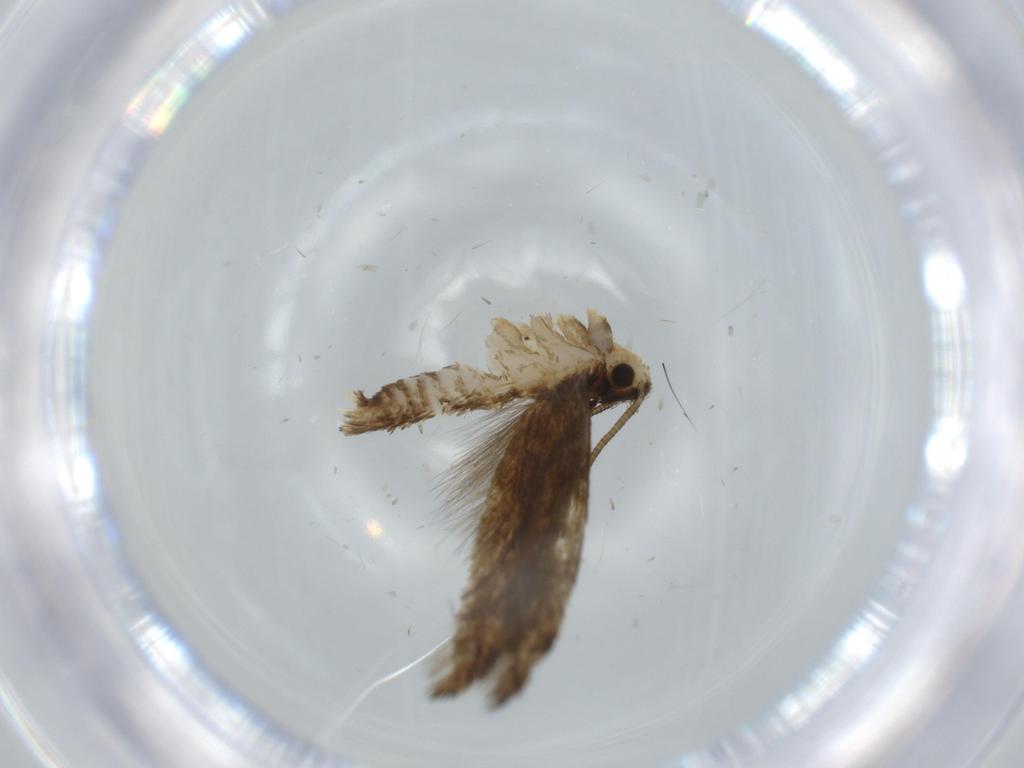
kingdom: Animalia
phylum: Arthropoda
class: Insecta
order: Lepidoptera
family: Tineidae
